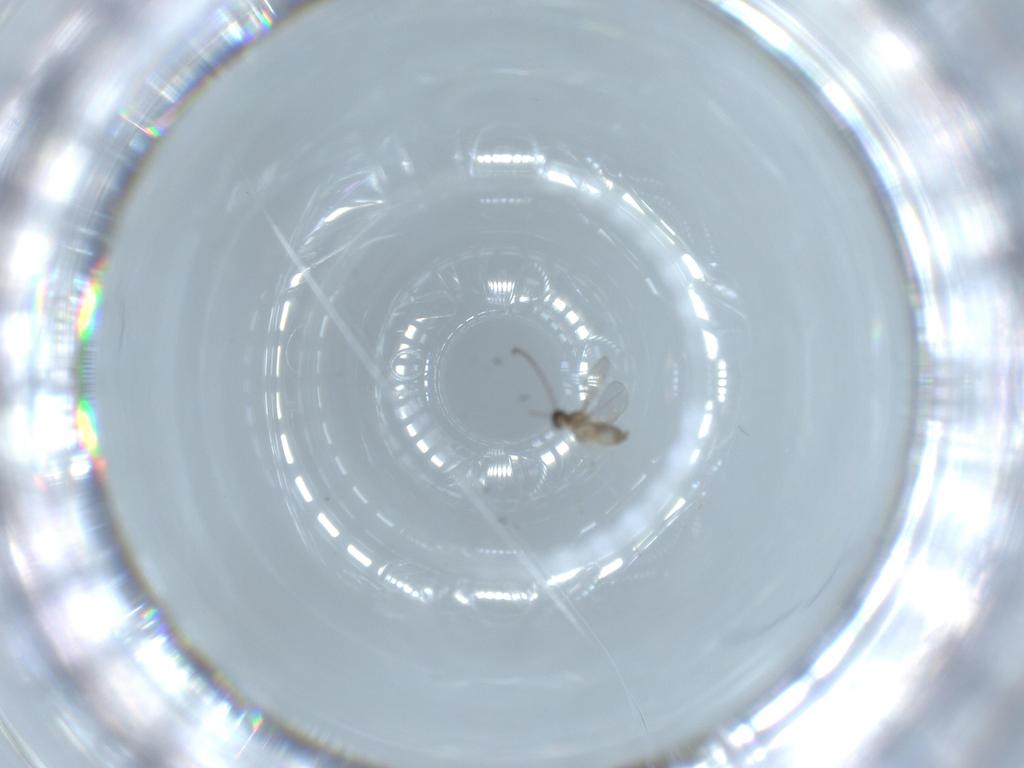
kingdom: Animalia
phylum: Arthropoda
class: Insecta
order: Diptera
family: Cecidomyiidae
